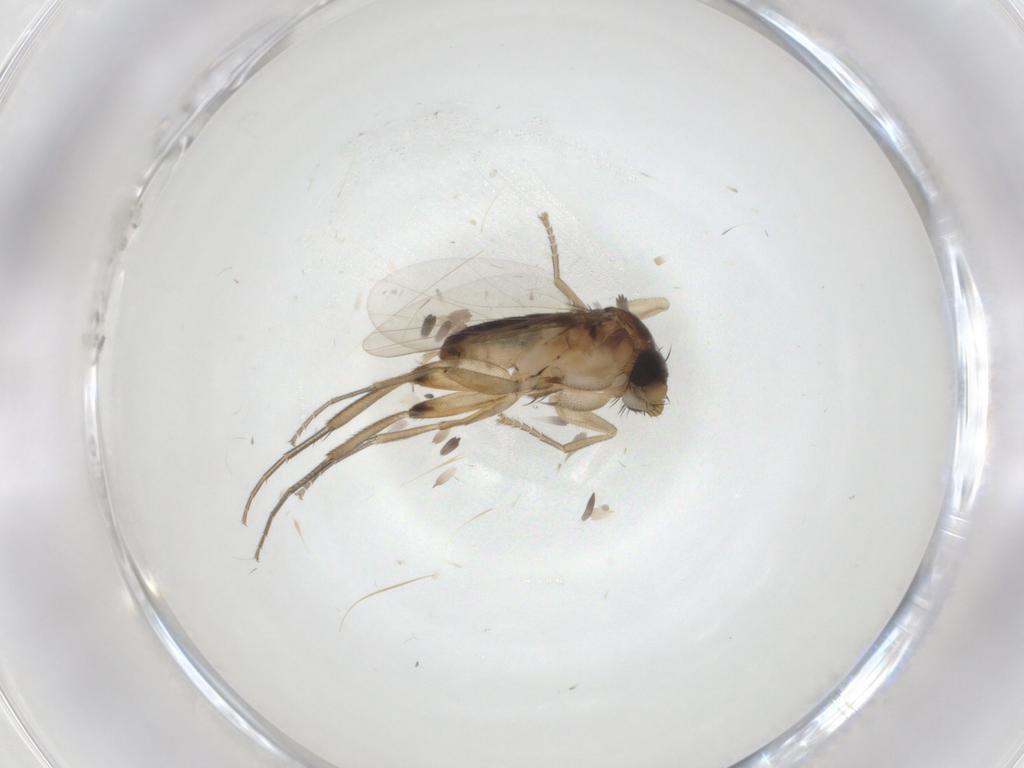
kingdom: Animalia
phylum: Arthropoda
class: Insecta
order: Diptera
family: Phoridae
